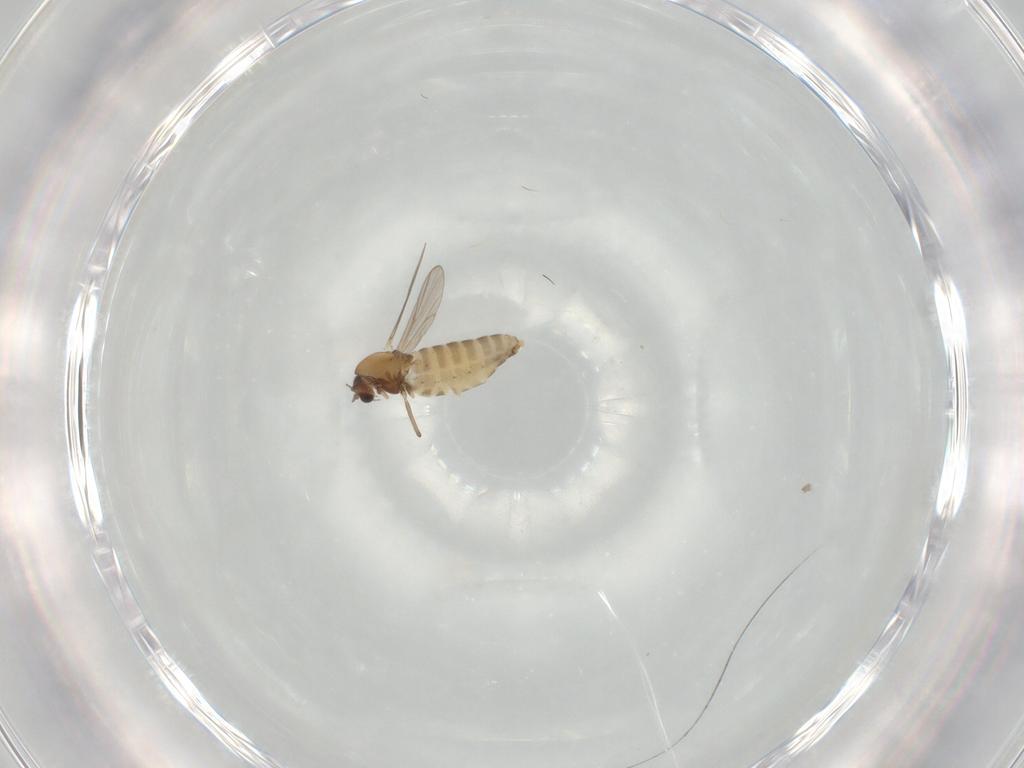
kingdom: Animalia
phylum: Arthropoda
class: Insecta
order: Diptera
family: Chironomidae
